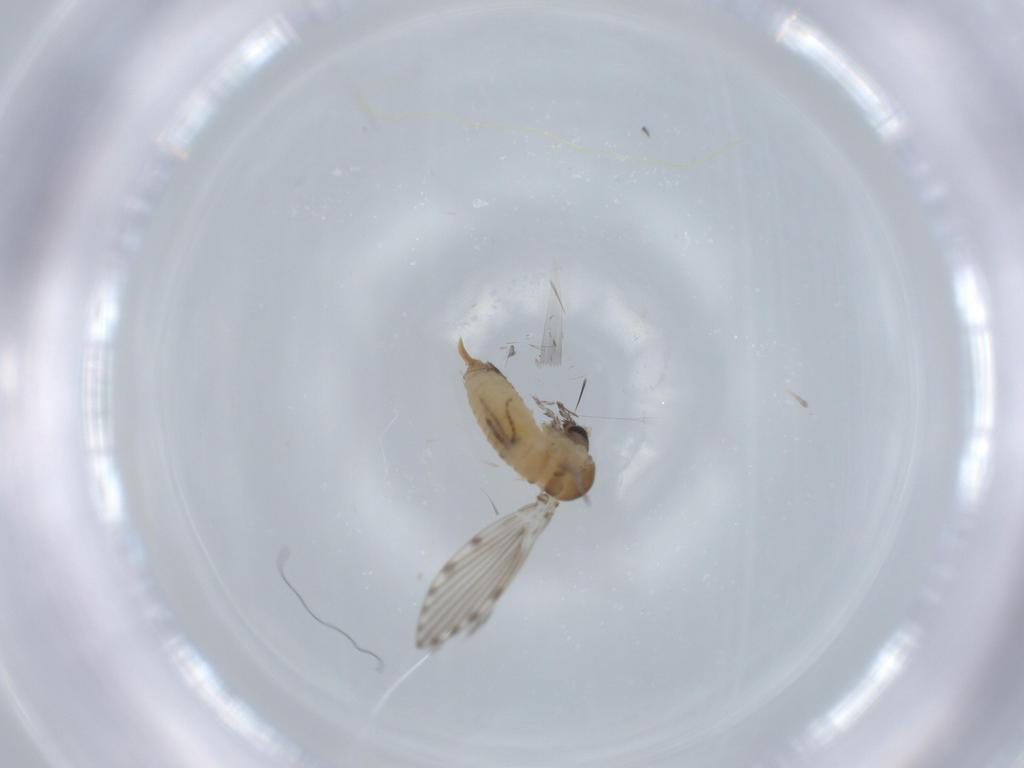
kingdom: Animalia
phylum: Arthropoda
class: Insecta
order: Diptera
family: Psychodidae
